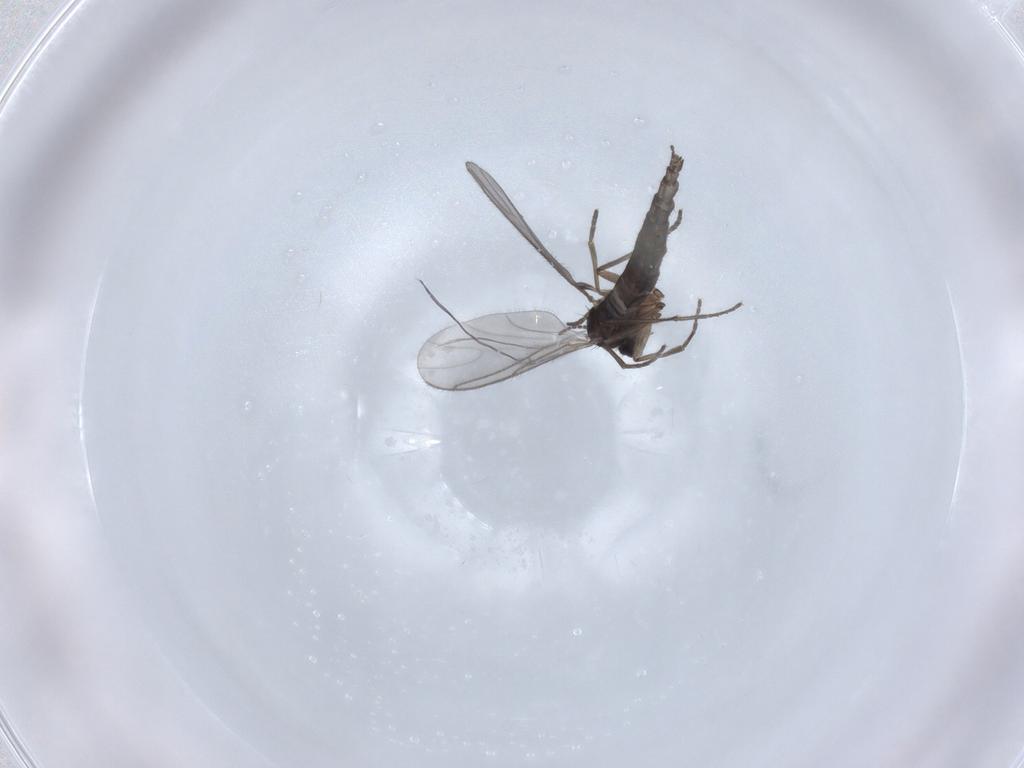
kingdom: Animalia
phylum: Arthropoda
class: Insecta
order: Diptera
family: Sciaridae
